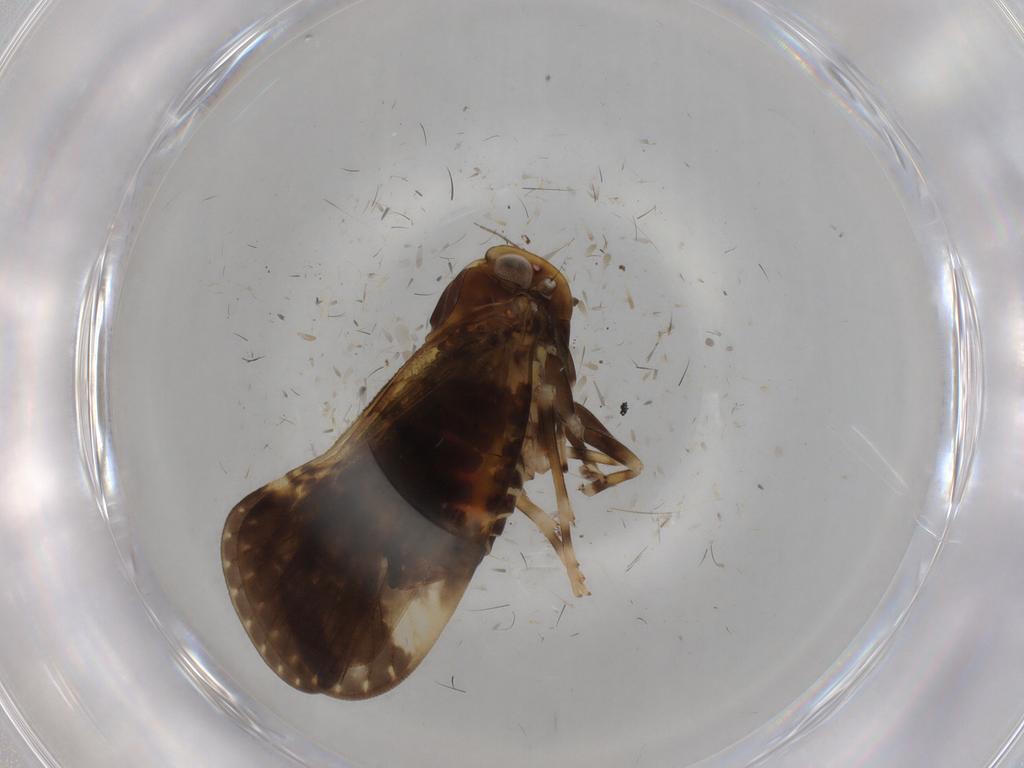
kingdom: Animalia
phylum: Arthropoda
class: Insecta
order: Hemiptera
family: Cixiidae
